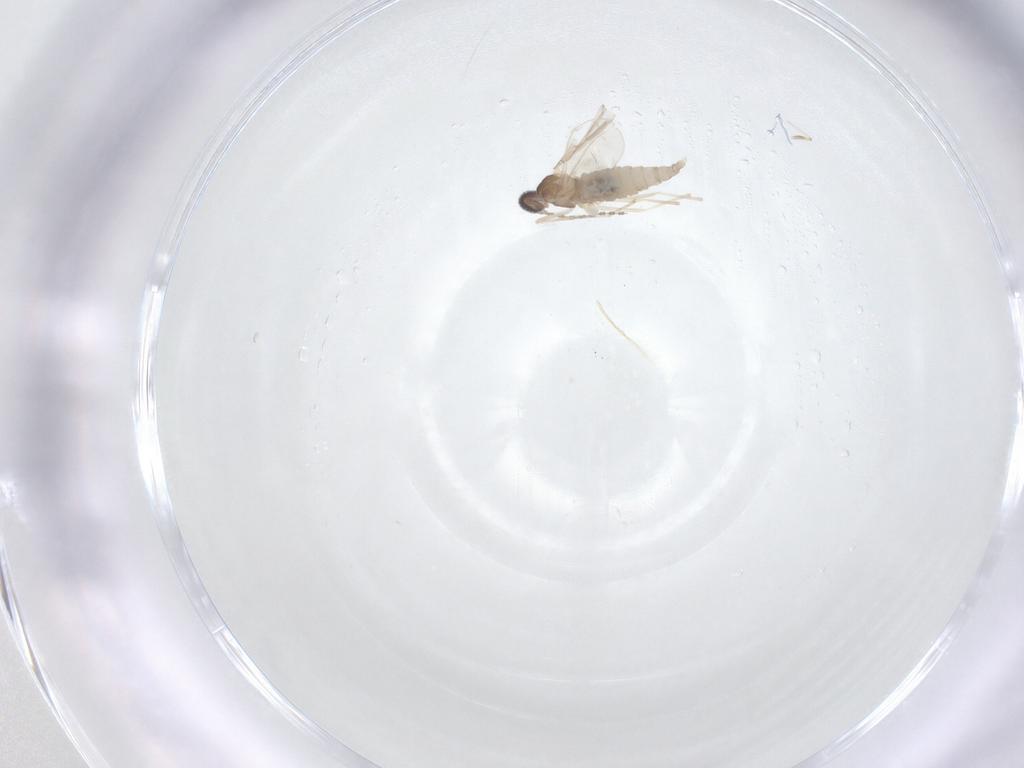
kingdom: Animalia
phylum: Arthropoda
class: Insecta
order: Diptera
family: Cecidomyiidae
